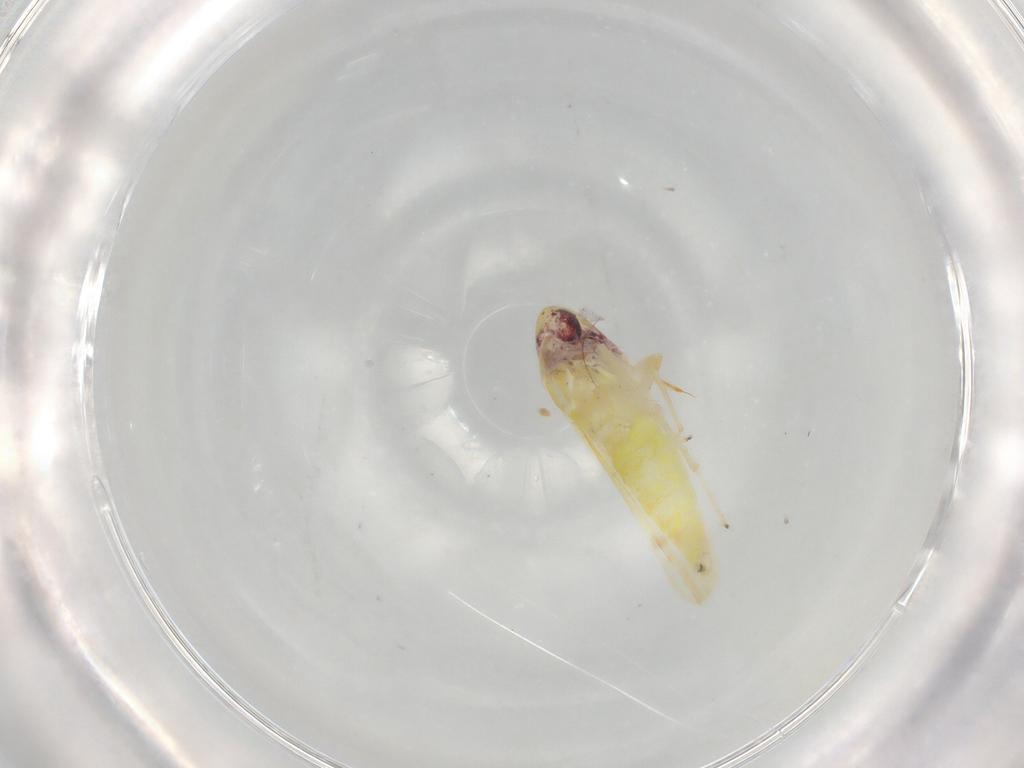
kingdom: Animalia
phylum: Arthropoda
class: Insecta
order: Hemiptera
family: Cicadellidae
